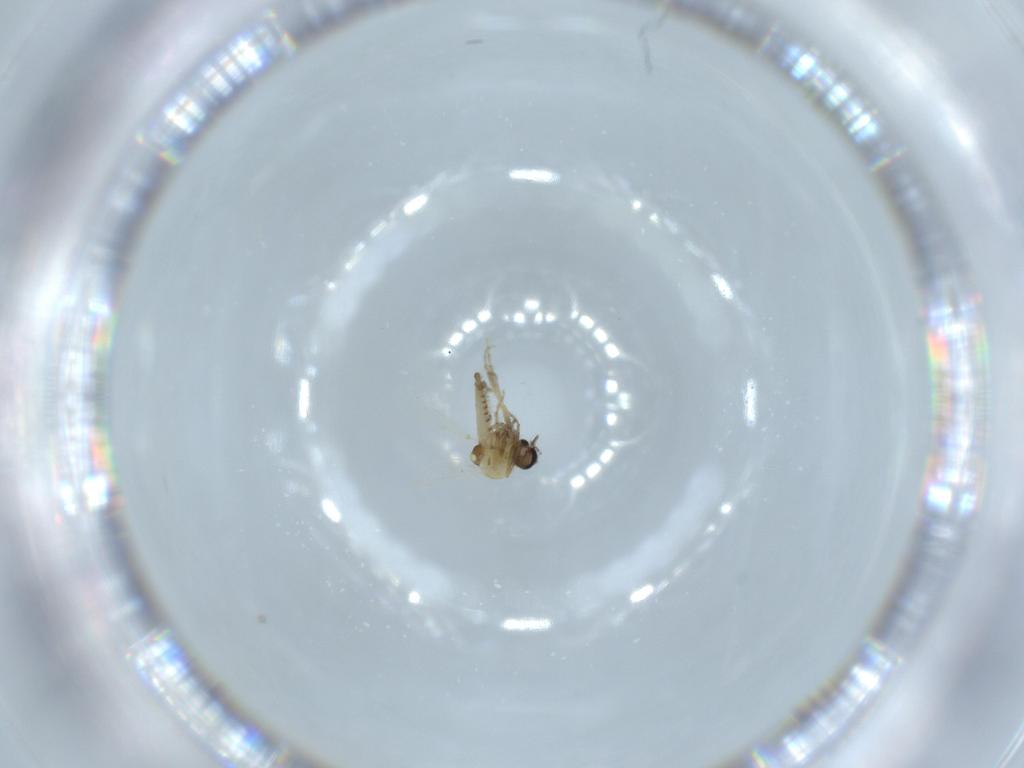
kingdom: Animalia
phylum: Arthropoda
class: Insecta
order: Diptera
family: Ceratopogonidae
